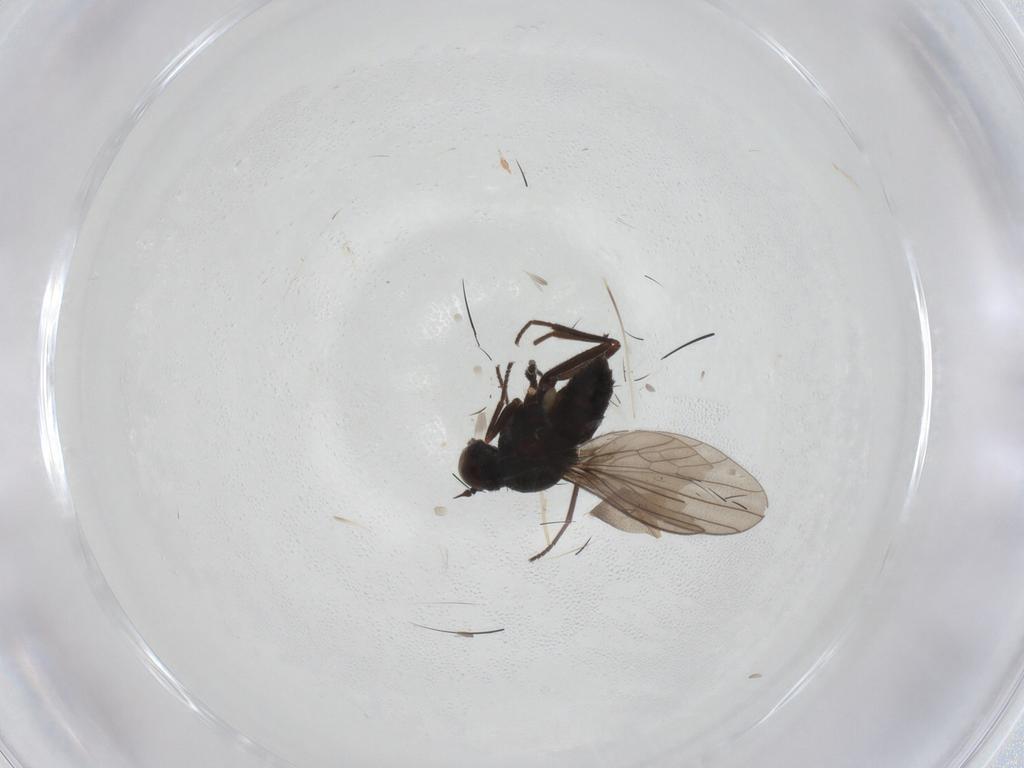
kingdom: Animalia
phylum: Arthropoda
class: Insecta
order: Diptera
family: Dolichopodidae
